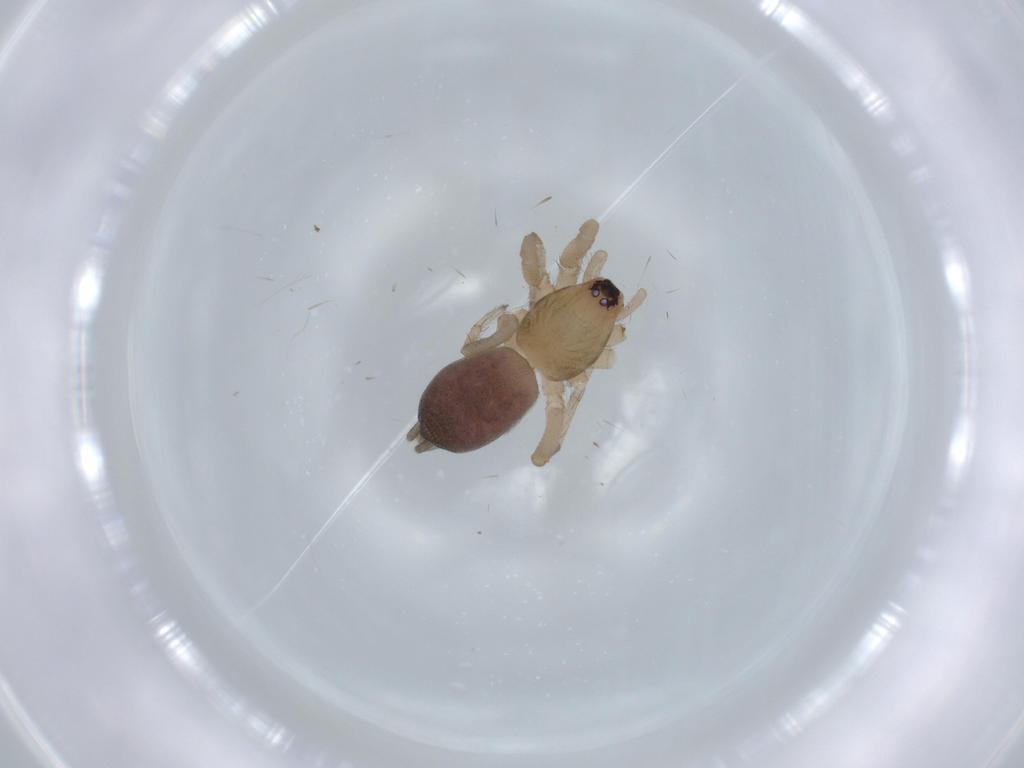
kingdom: Animalia
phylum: Arthropoda
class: Arachnida
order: Araneae
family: Gnaphosidae
